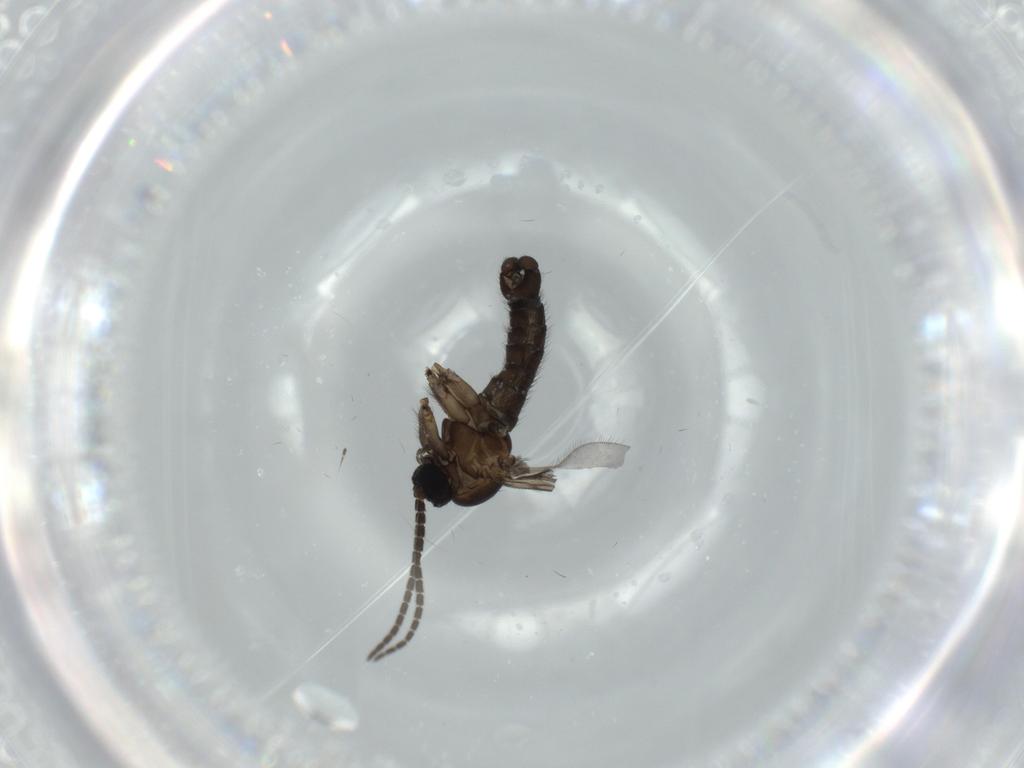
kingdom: Animalia
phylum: Arthropoda
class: Insecta
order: Diptera
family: Sciaridae
